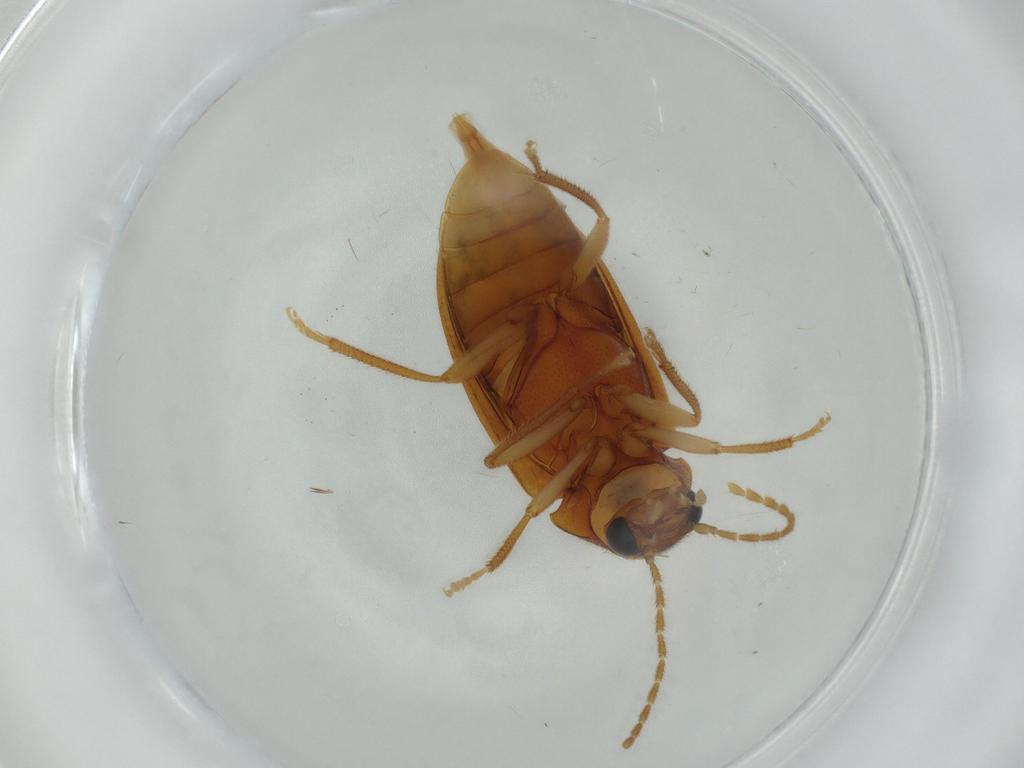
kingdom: Animalia
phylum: Arthropoda
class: Insecta
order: Coleoptera
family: Ptilodactylidae
